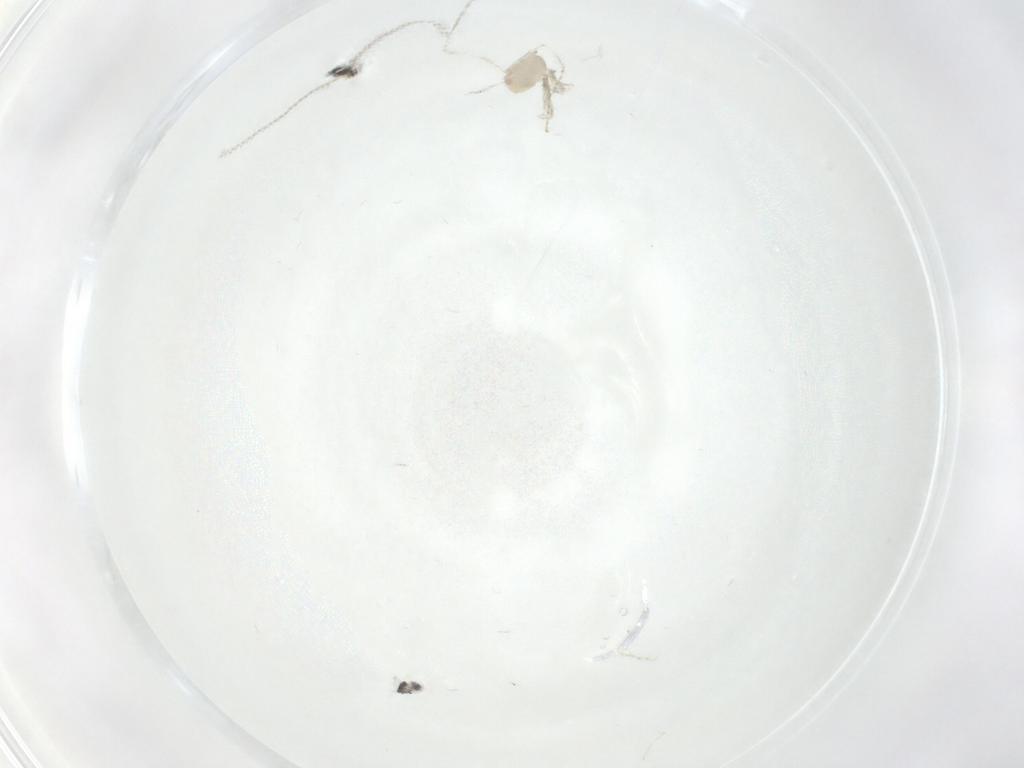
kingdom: Animalia
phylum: Arthropoda
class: Insecta
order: Diptera
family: Cecidomyiidae
